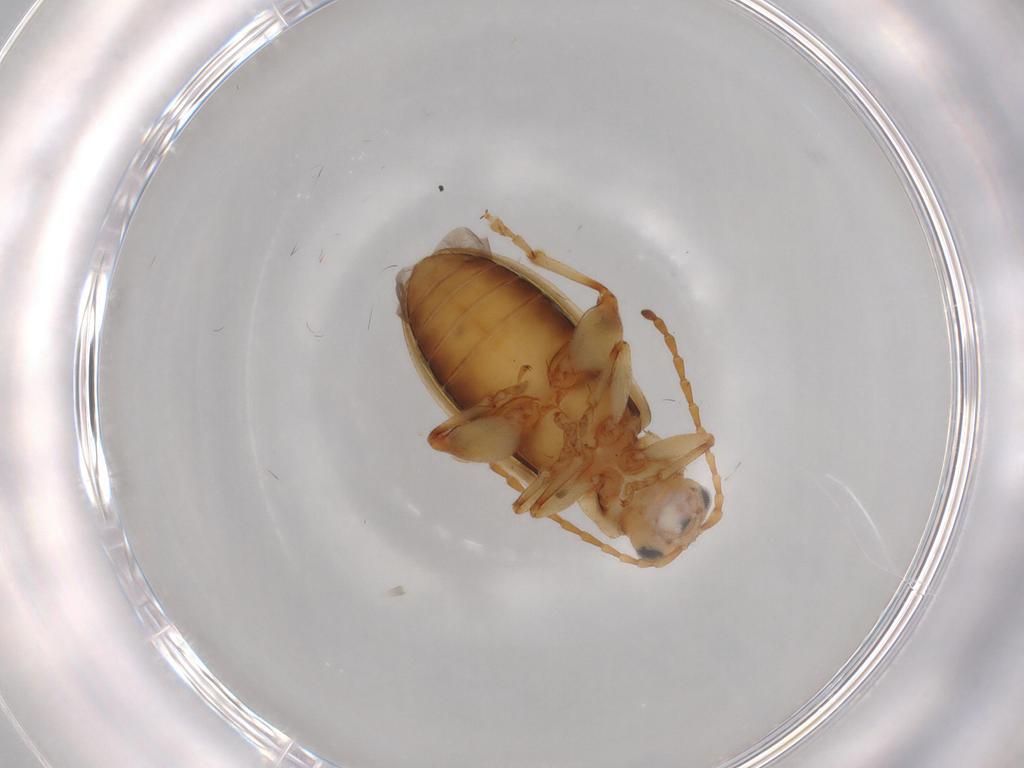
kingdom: Animalia
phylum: Arthropoda
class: Insecta
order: Coleoptera
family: Chrysomelidae
